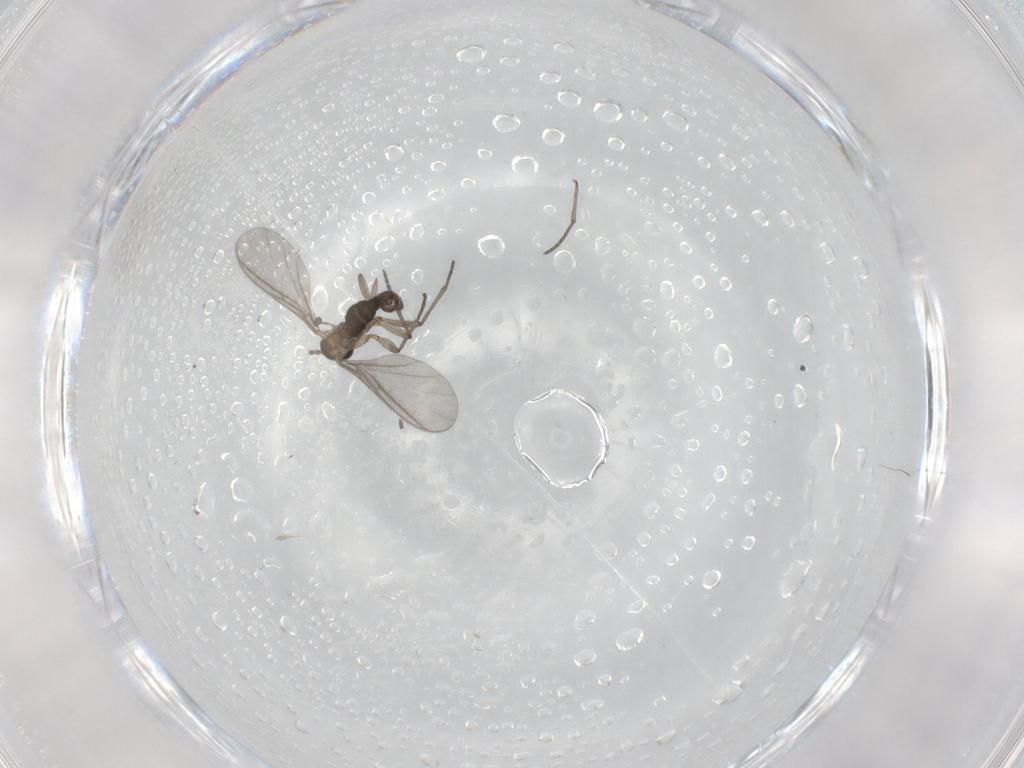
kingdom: Animalia
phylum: Arthropoda
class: Insecta
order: Diptera
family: Sciaridae
